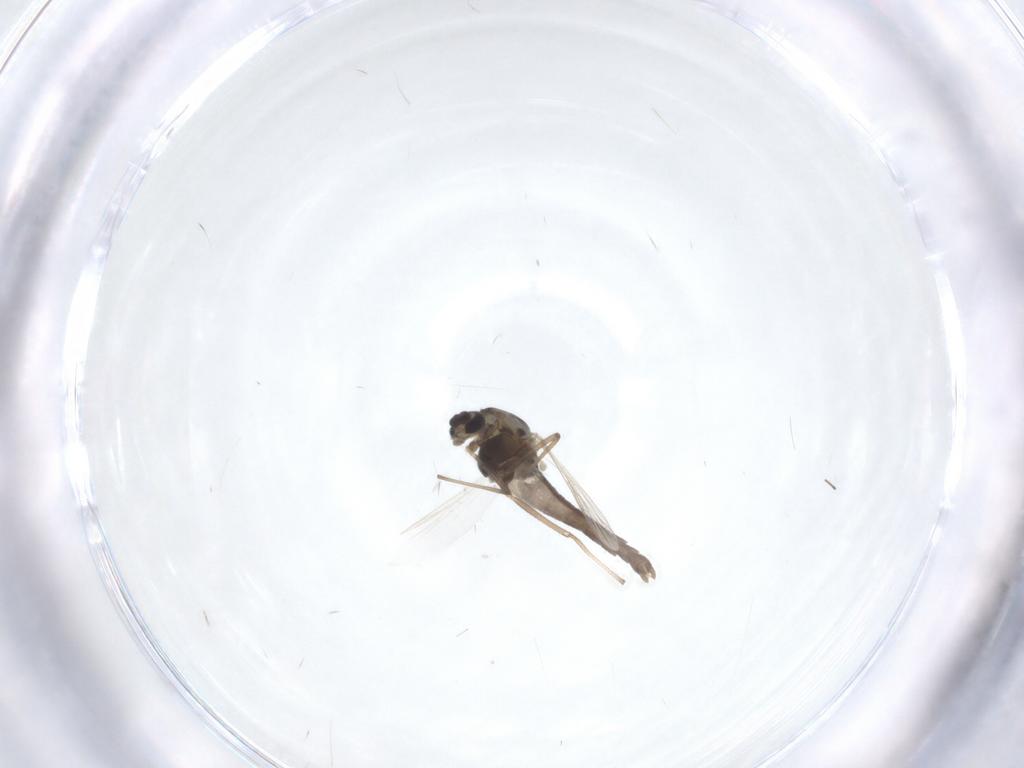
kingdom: Animalia
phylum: Arthropoda
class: Insecta
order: Diptera
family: Chironomidae
